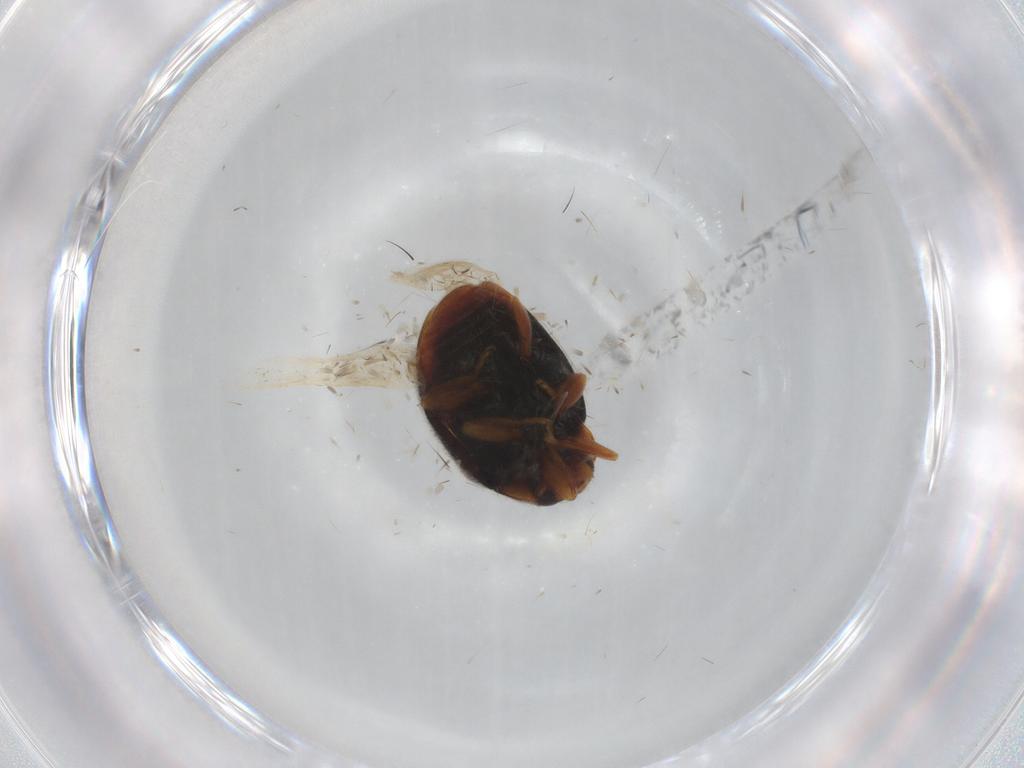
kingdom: Animalia
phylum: Arthropoda
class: Insecta
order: Coleoptera
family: Coccinellidae
